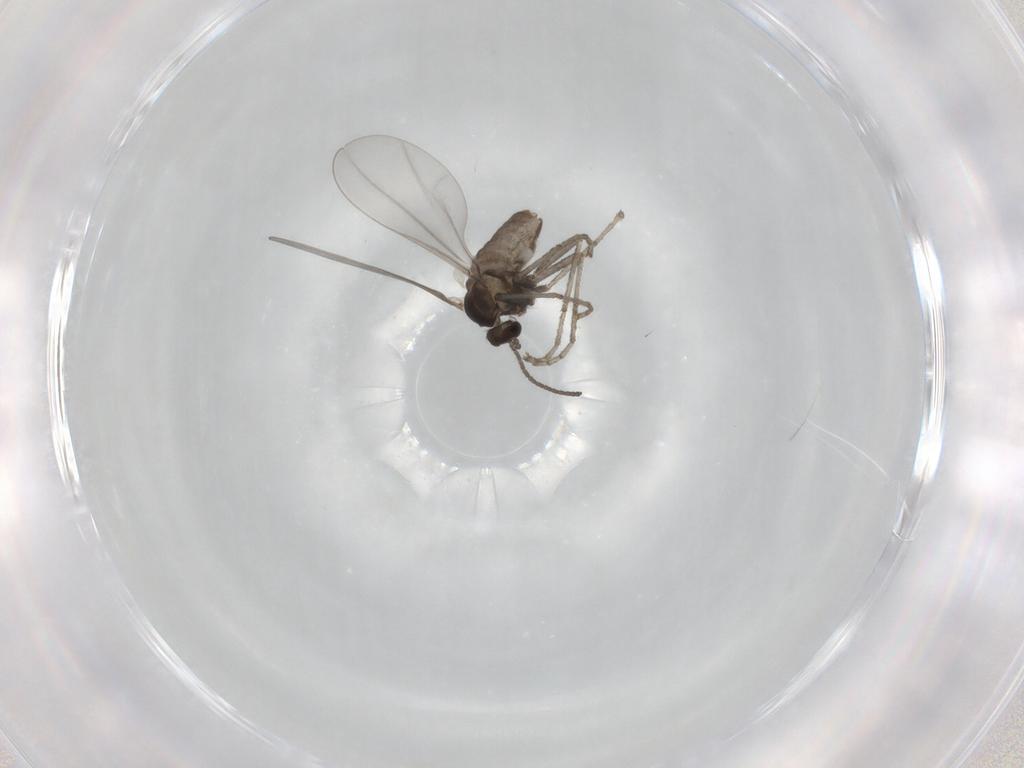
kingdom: Animalia
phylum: Arthropoda
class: Insecta
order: Diptera
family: Cecidomyiidae
